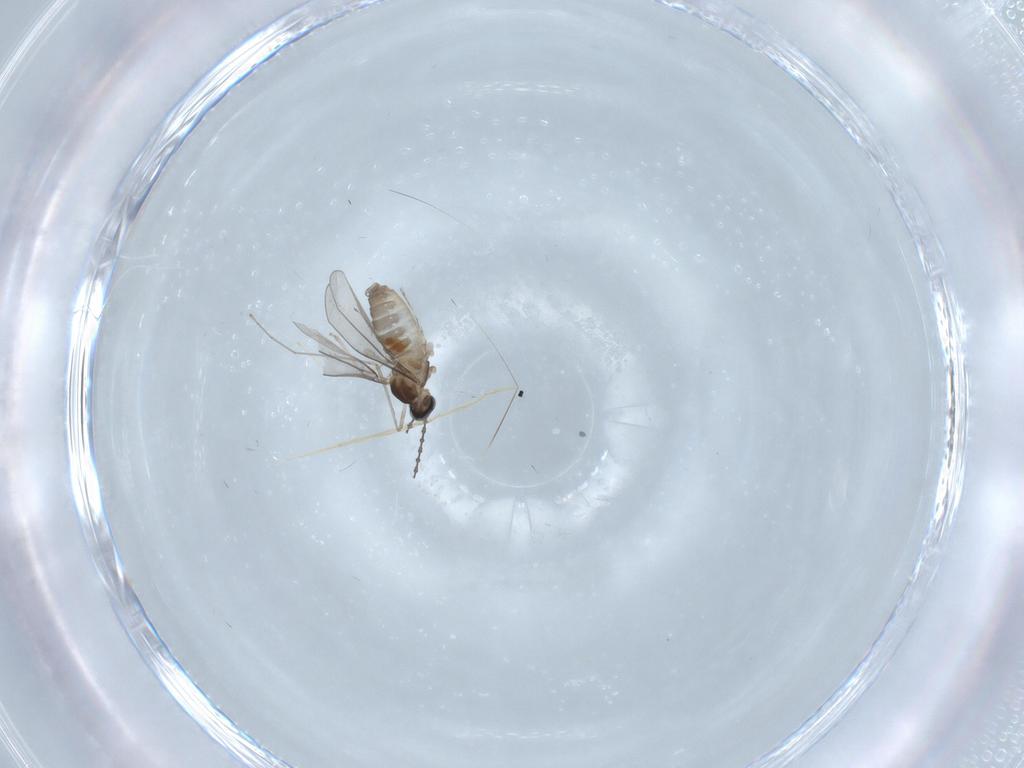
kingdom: Animalia
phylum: Arthropoda
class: Insecta
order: Diptera
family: Cecidomyiidae
